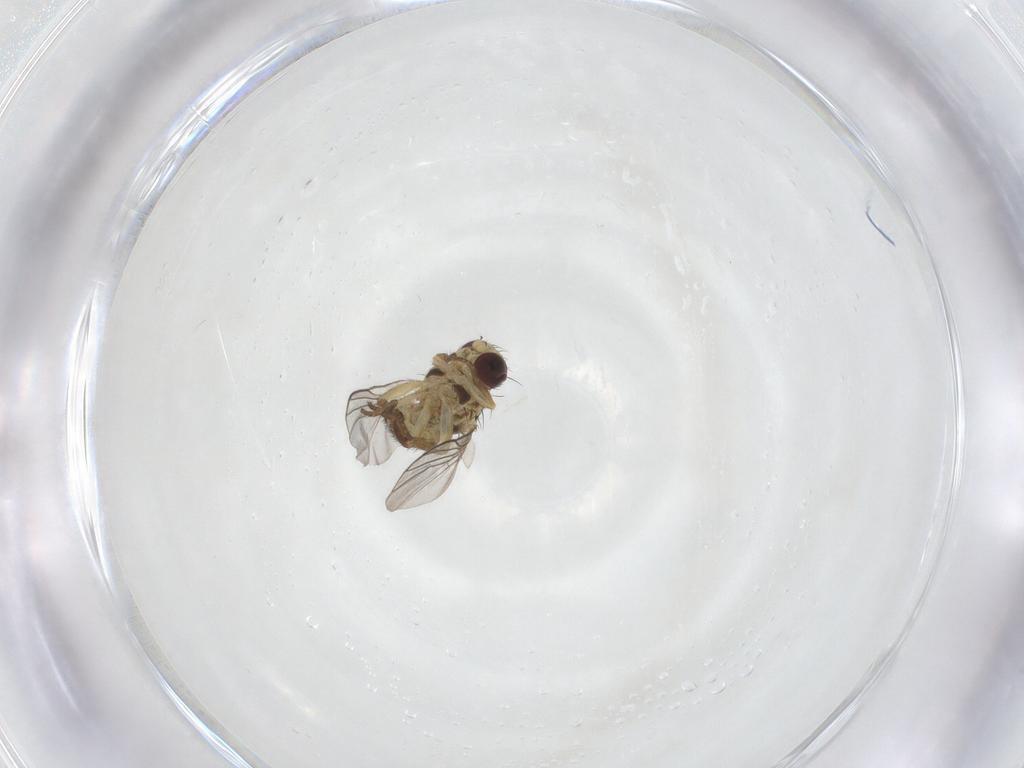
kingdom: Animalia
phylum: Arthropoda
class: Insecta
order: Diptera
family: Agromyzidae
